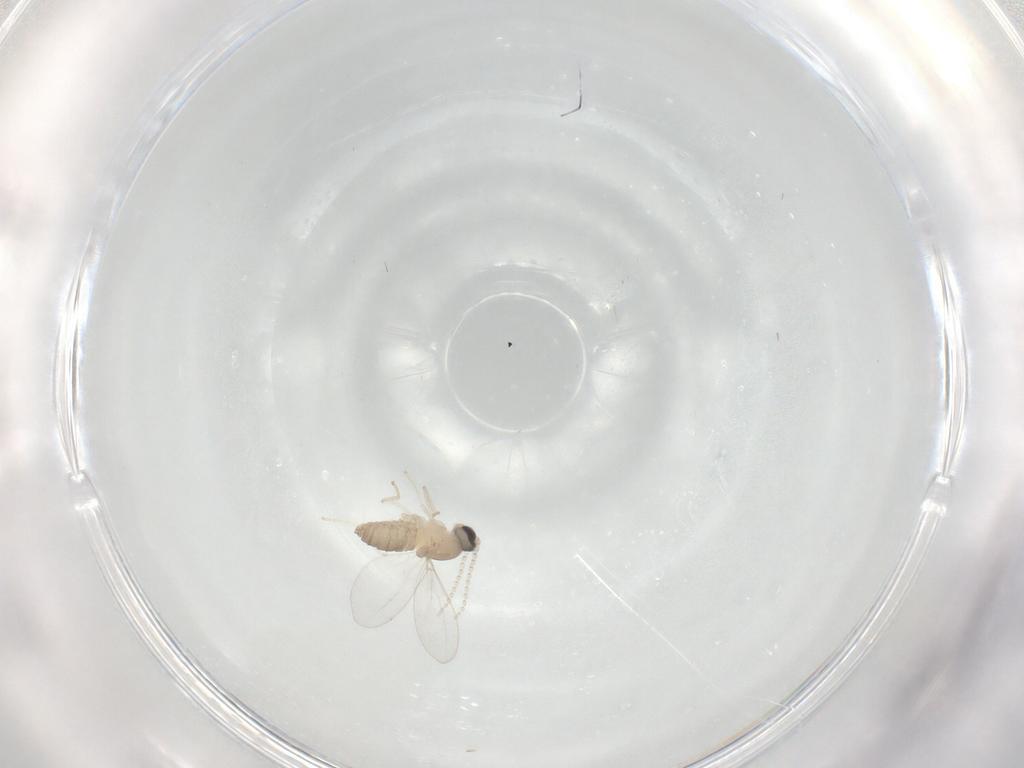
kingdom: Animalia
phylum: Arthropoda
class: Insecta
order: Diptera
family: Cecidomyiidae
